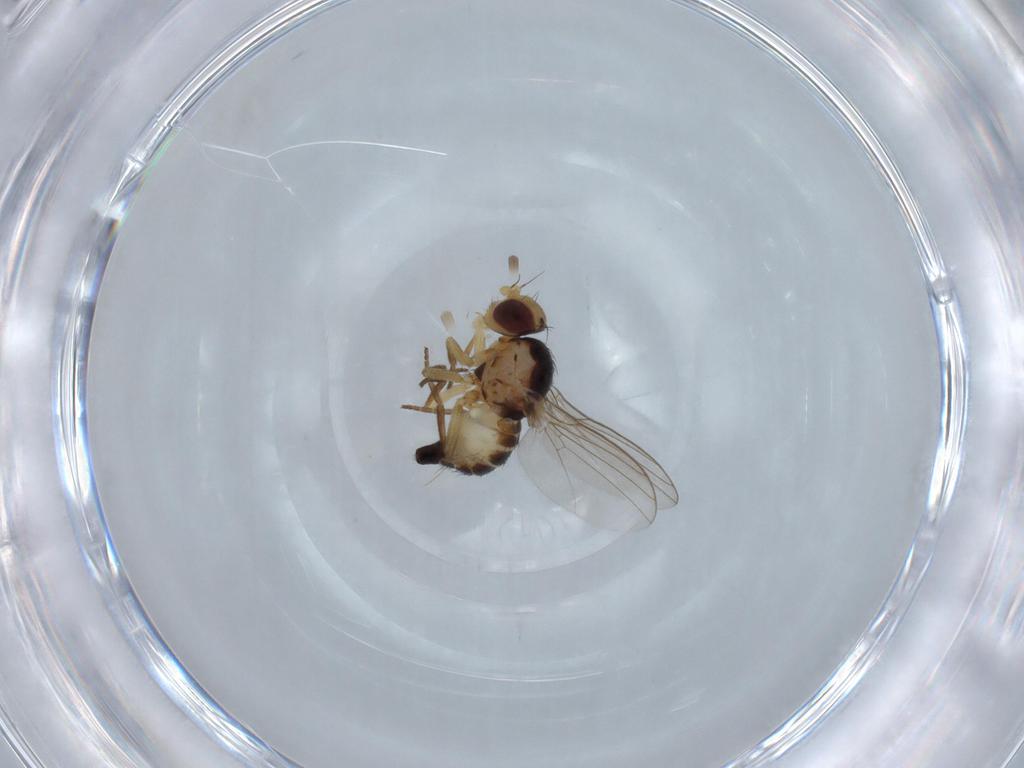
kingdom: Animalia
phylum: Arthropoda
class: Insecta
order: Diptera
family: Agromyzidae
